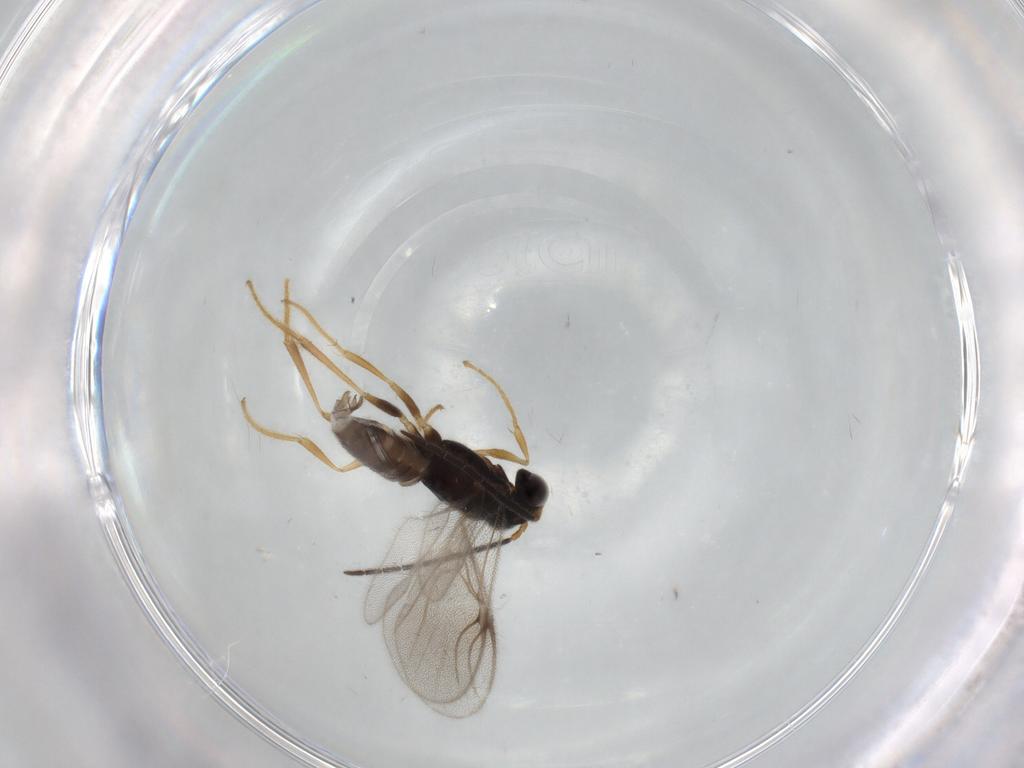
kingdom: Animalia
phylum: Arthropoda
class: Insecta
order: Hymenoptera
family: Dryinidae
